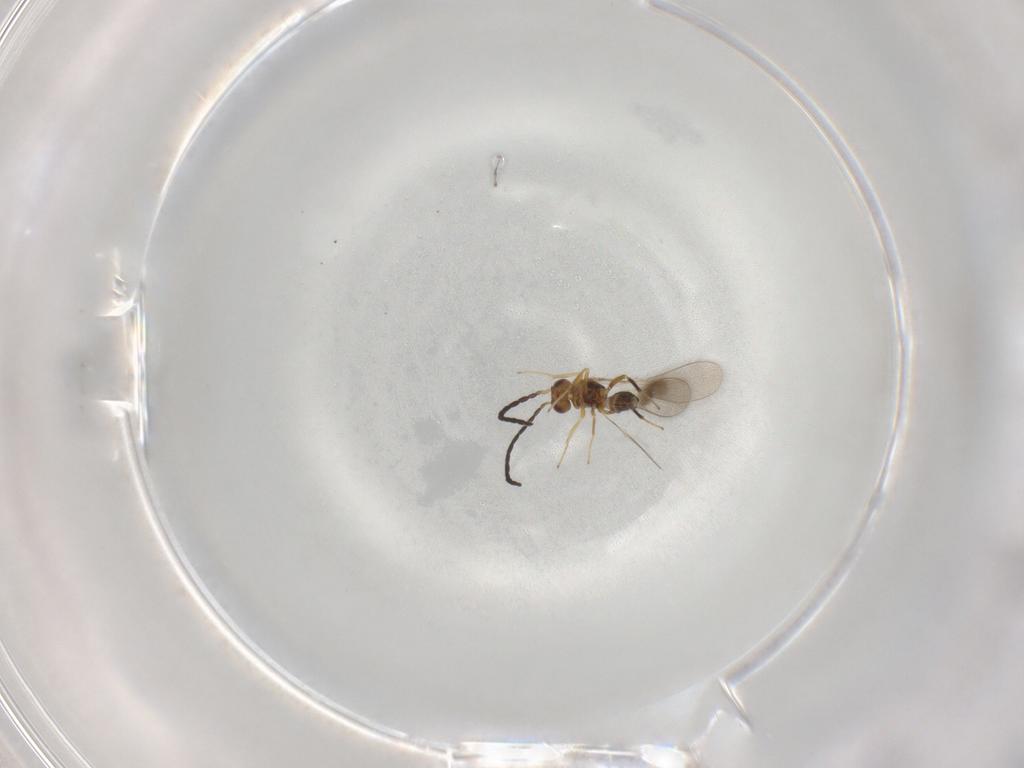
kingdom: Animalia
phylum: Arthropoda
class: Insecta
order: Hymenoptera
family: Mymaridae
